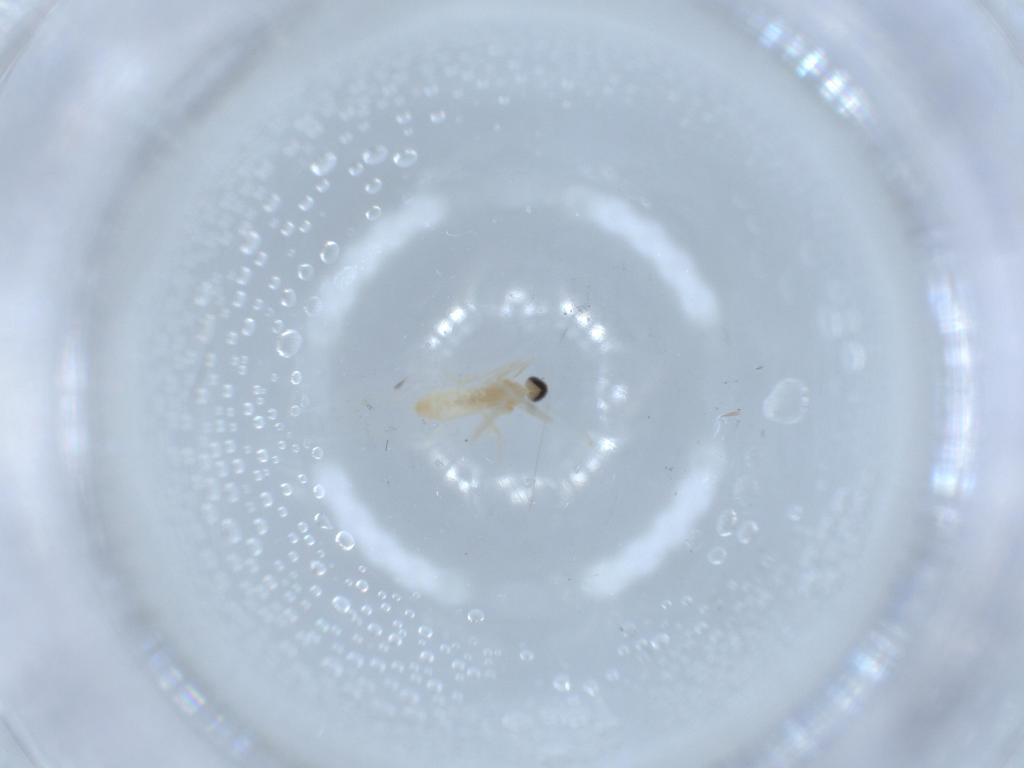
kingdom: Animalia
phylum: Arthropoda
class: Insecta
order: Diptera
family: Cecidomyiidae
